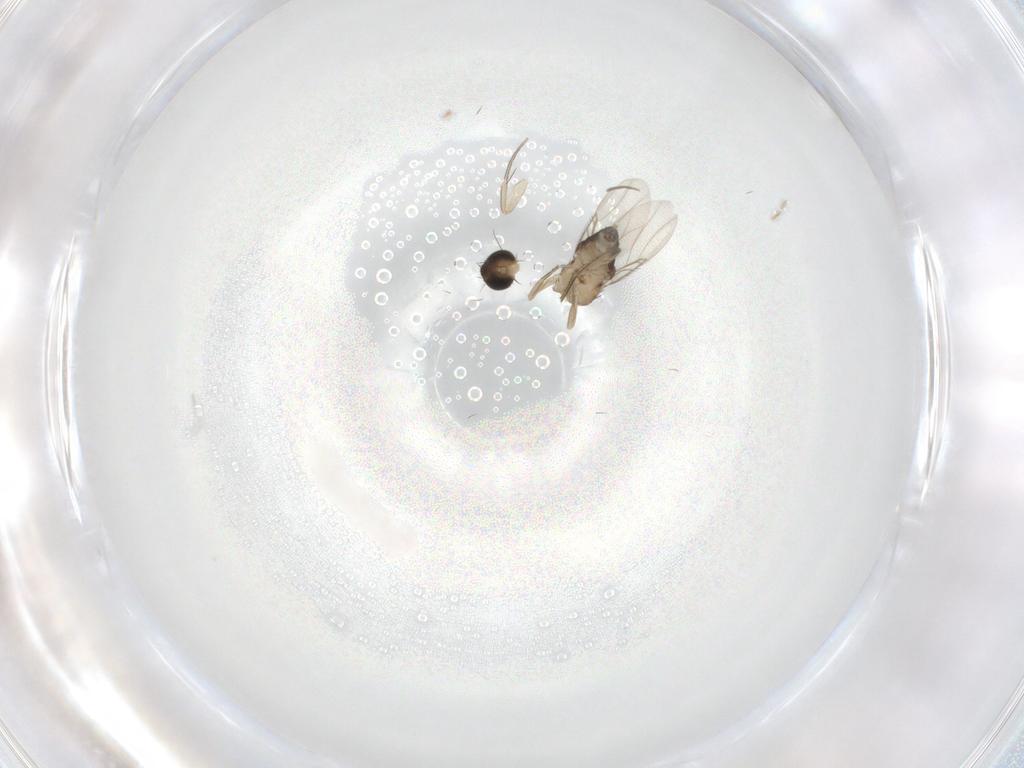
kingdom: Animalia
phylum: Arthropoda
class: Insecta
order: Diptera
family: Phoridae
